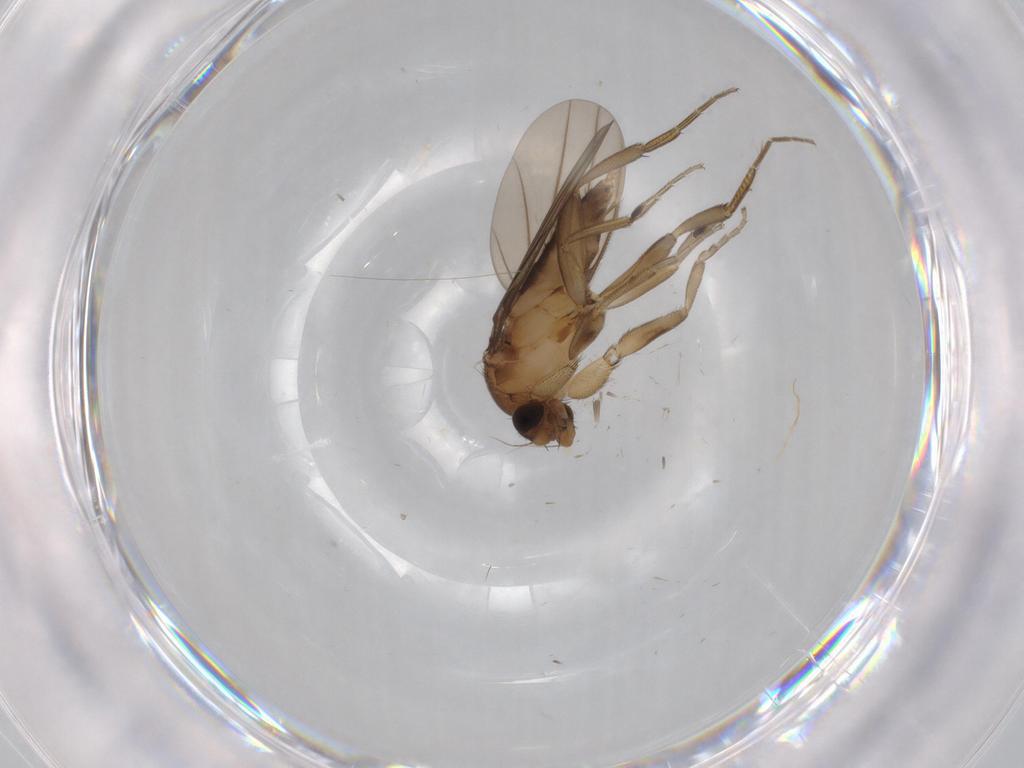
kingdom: Animalia
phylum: Arthropoda
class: Insecta
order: Diptera
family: Phoridae
